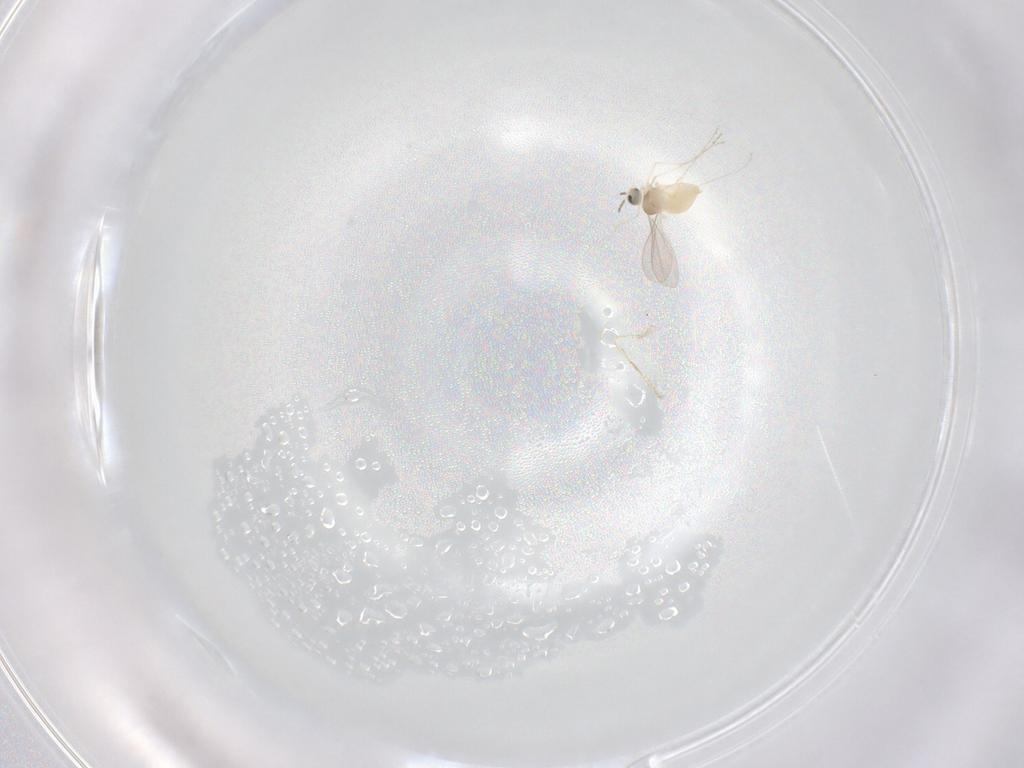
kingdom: Animalia
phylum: Arthropoda
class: Insecta
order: Diptera
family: Cecidomyiidae
